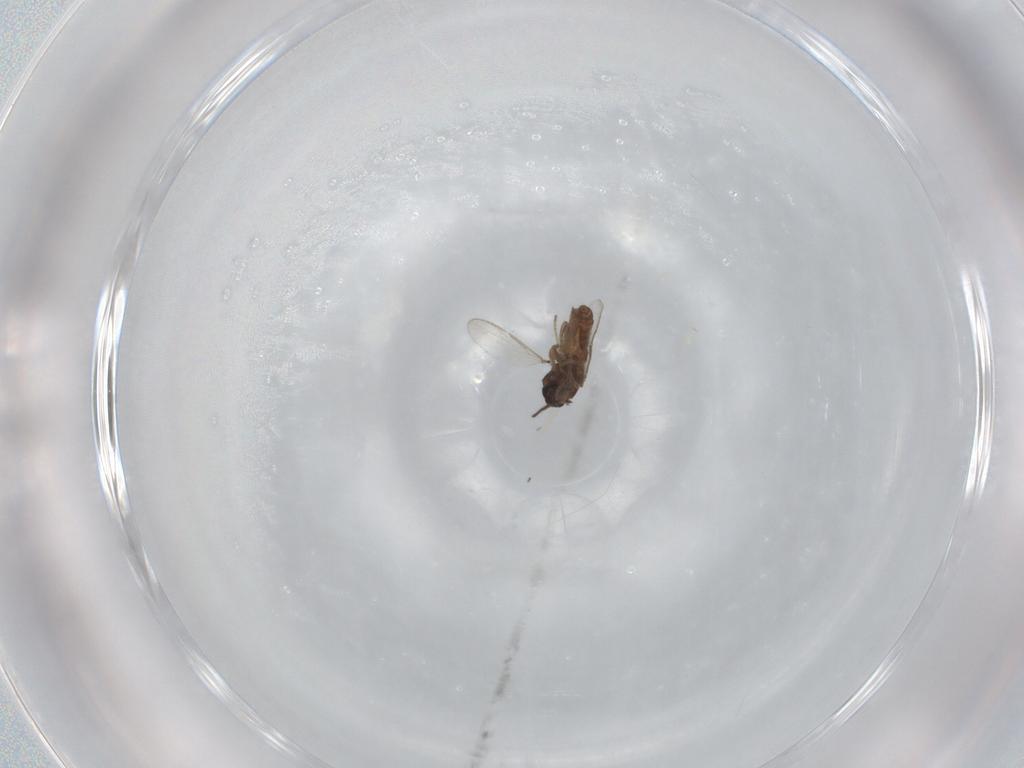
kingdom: Animalia
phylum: Arthropoda
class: Insecta
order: Diptera
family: Ceratopogonidae
